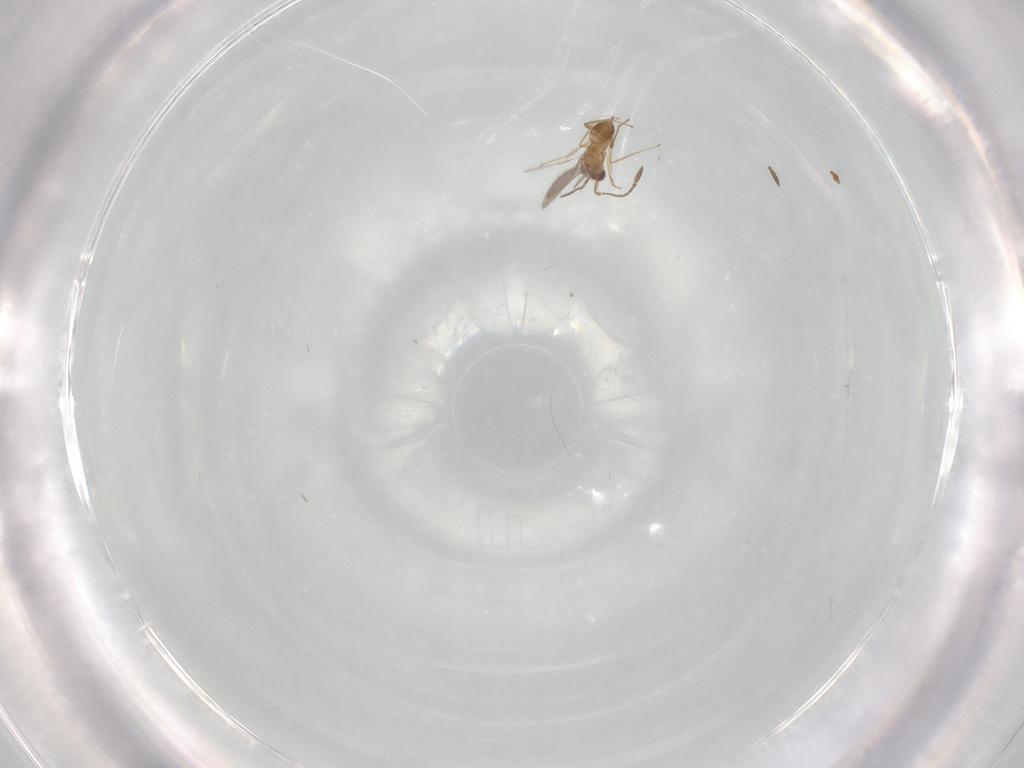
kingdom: Animalia
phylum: Arthropoda
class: Insecta
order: Hymenoptera
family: Mymaridae
